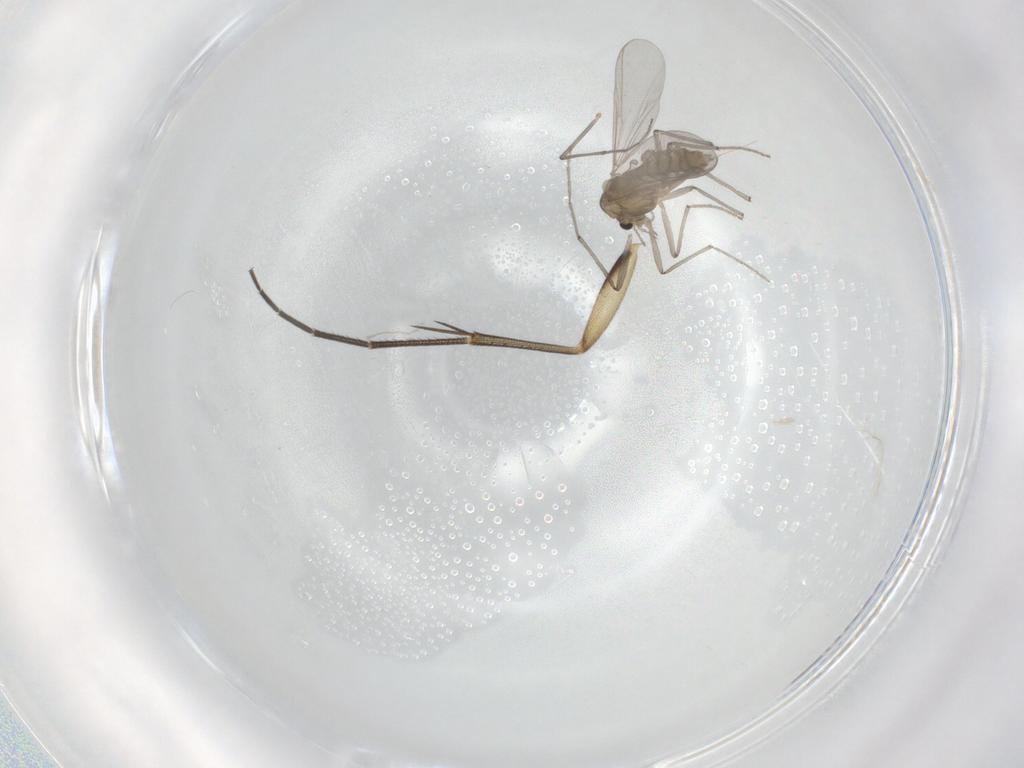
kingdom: Animalia
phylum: Arthropoda
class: Insecta
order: Diptera
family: Chironomidae
